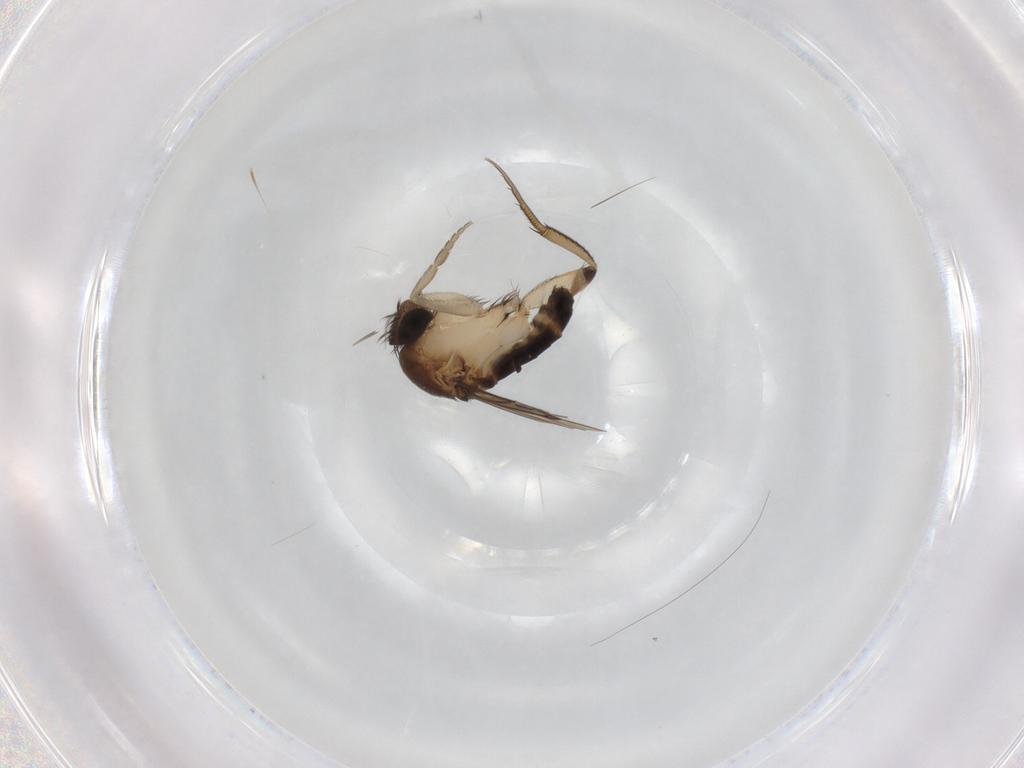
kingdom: Animalia
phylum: Arthropoda
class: Insecta
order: Diptera
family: Phoridae
